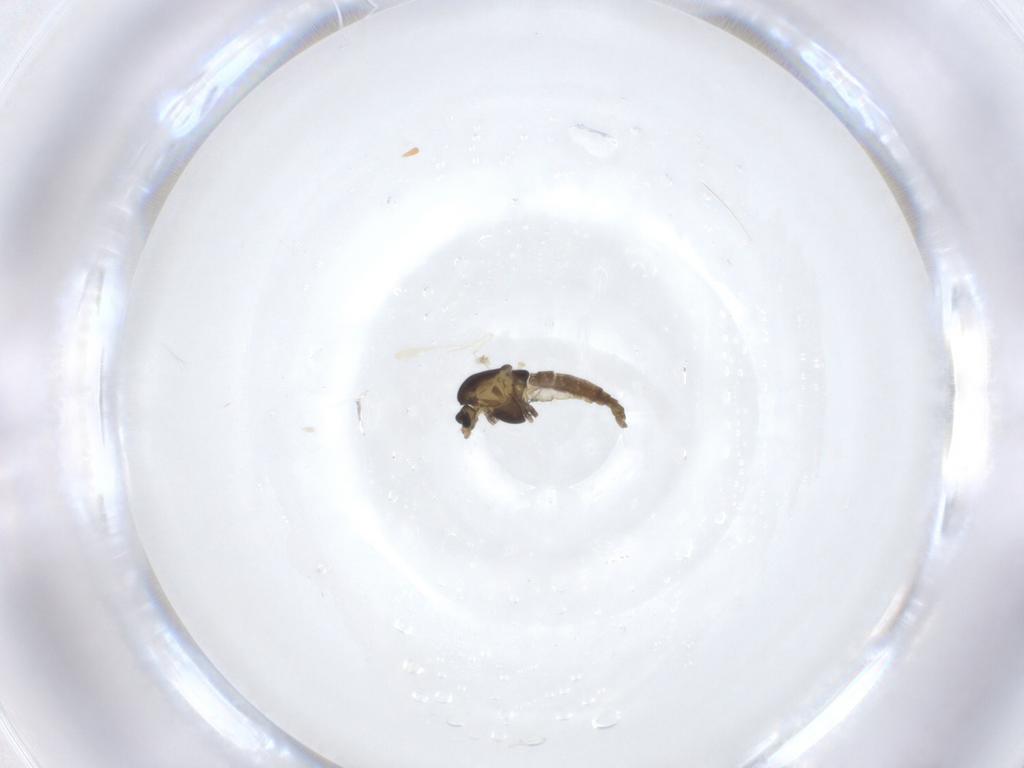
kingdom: Animalia
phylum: Arthropoda
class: Insecta
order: Diptera
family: Chironomidae
